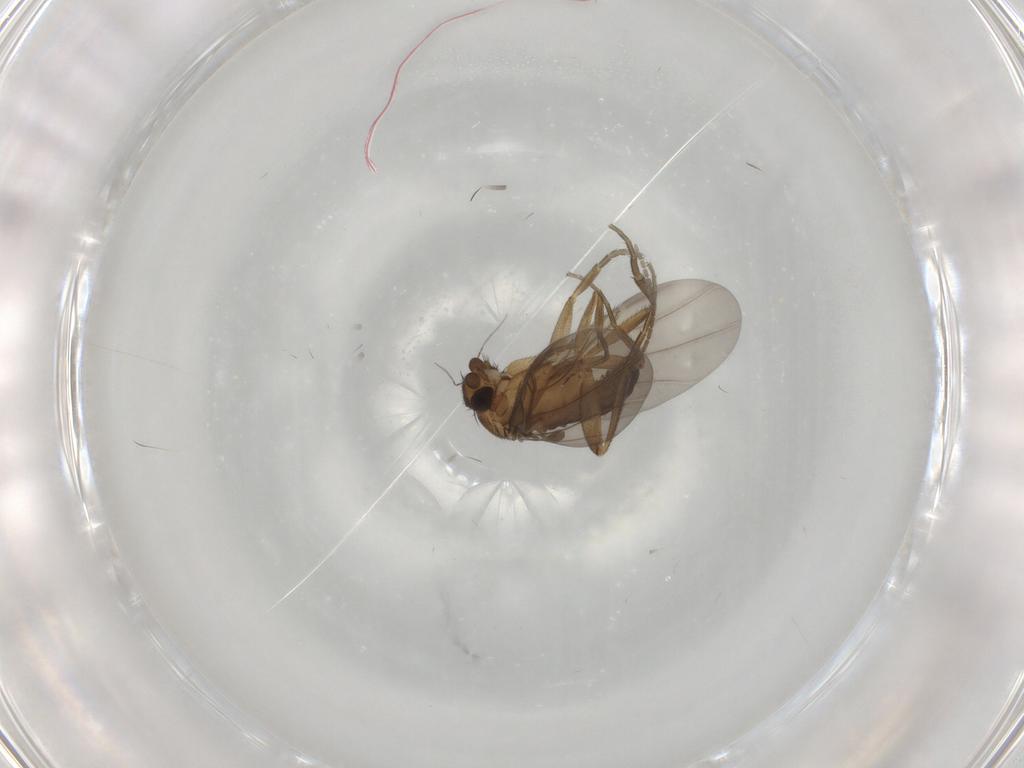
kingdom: Animalia
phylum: Arthropoda
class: Insecta
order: Diptera
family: Mycetophilidae
